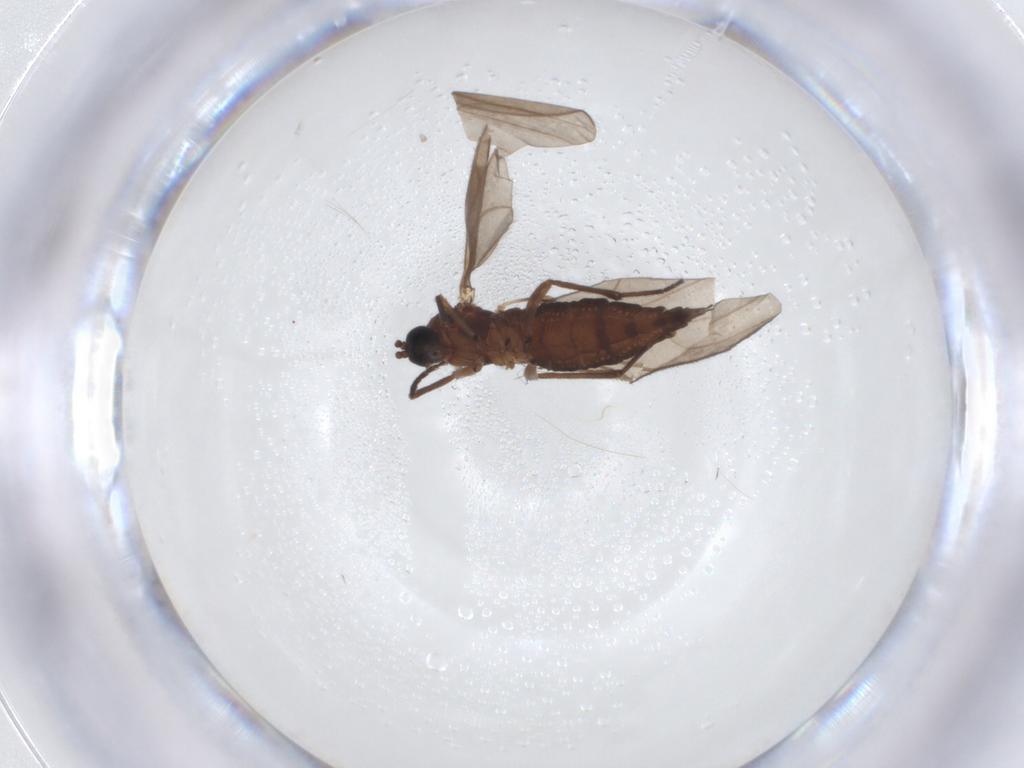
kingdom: Animalia
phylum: Arthropoda
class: Insecta
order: Diptera
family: Sciaridae
